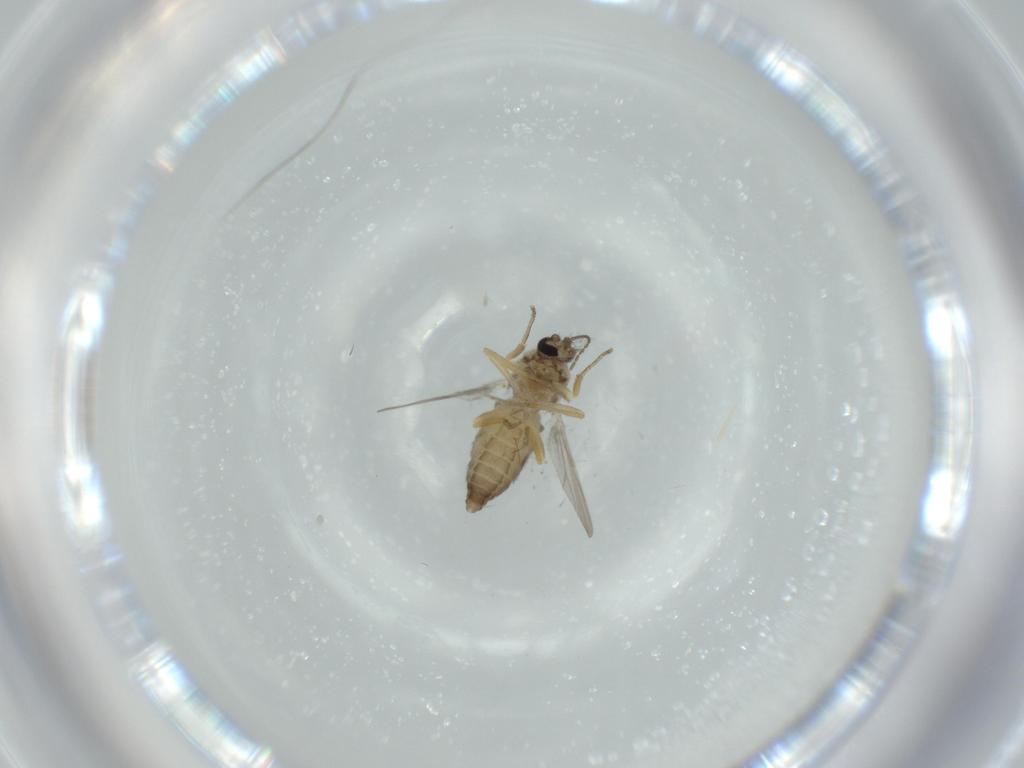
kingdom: Animalia
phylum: Arthropoda
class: Insecta
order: Diptera
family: Ceratopogonidae
